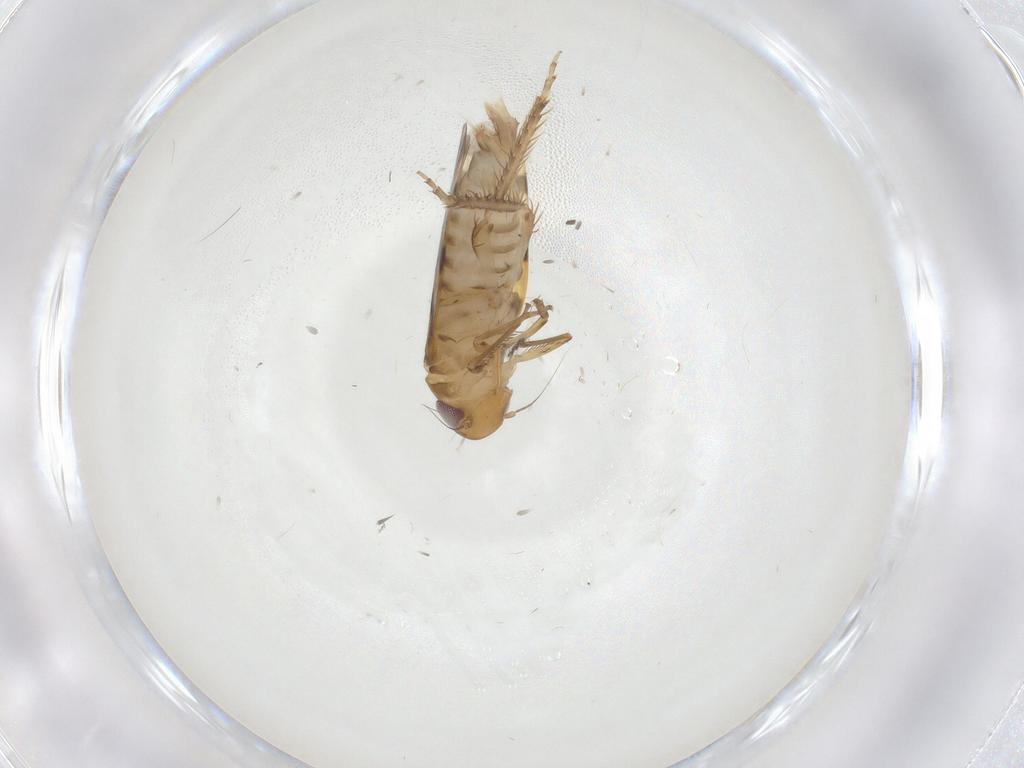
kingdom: Animalia
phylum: Arthropoda
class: Insecta
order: Hemiptera
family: Cicadellidae
